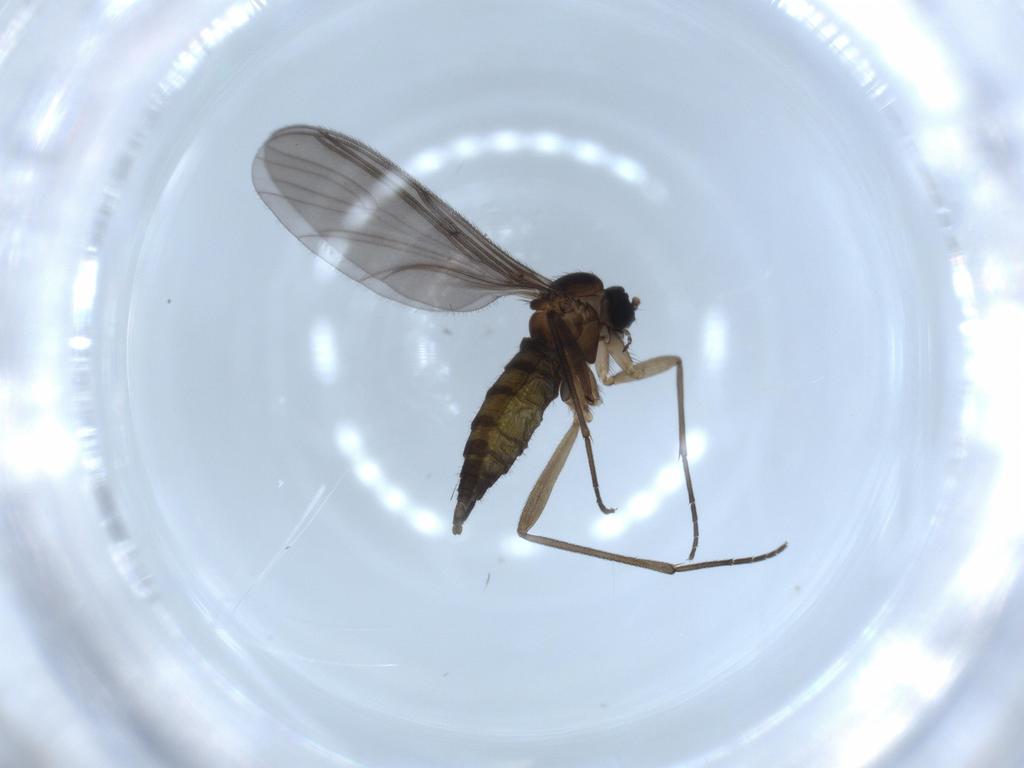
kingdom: Animalia
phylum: Arthropoda
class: Insecta
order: Diptera
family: Sciaridae
